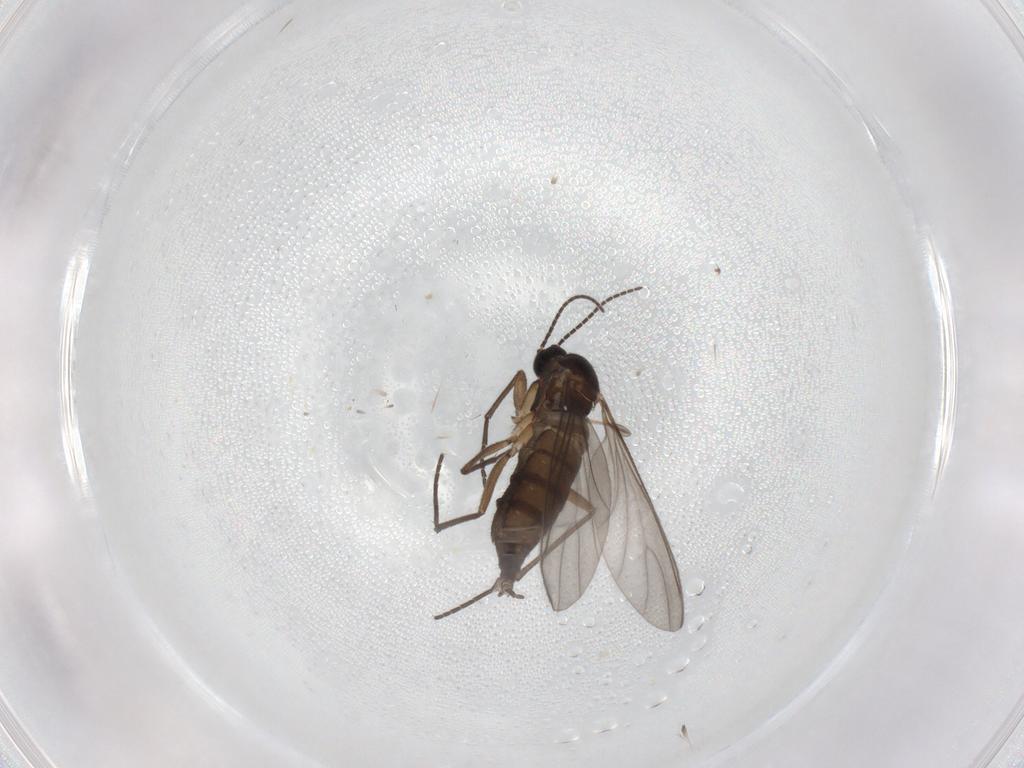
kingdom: Animalia
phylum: Arthropoda
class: Insecta
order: Diptera
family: Sciaridae
